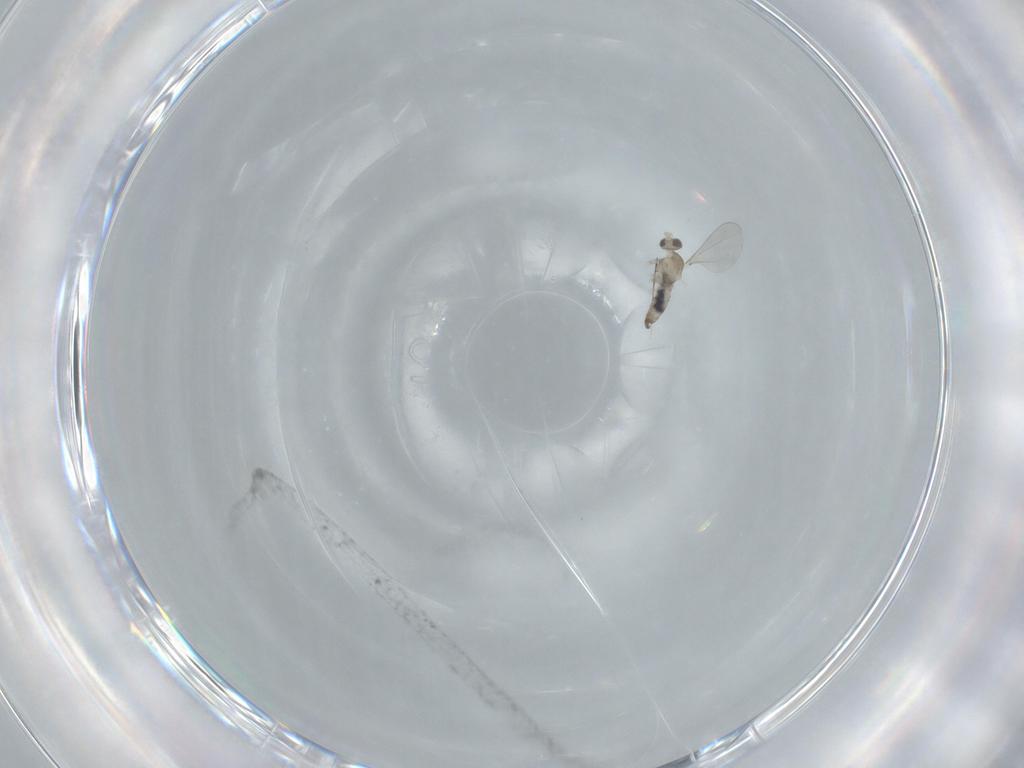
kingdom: Animalia
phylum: Arthropoda
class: Insecta
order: Diptera
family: Cecidomyiidae
